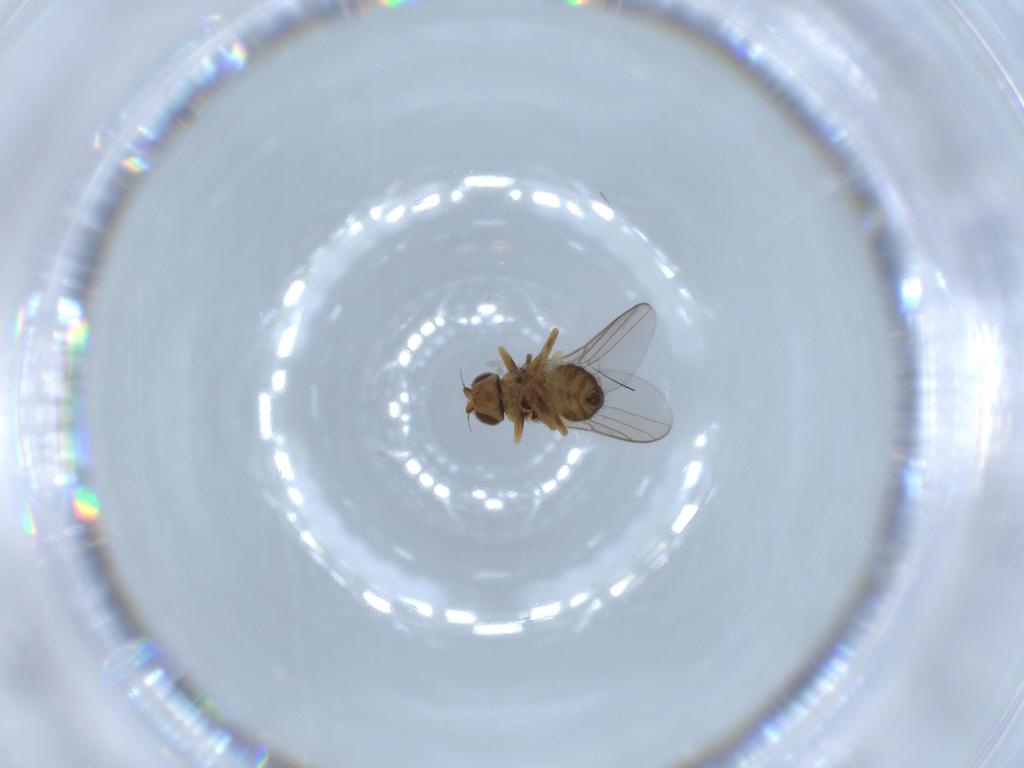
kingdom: Animalia
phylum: Arthropoda
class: Insecta
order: Diptera
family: Chloropidae
